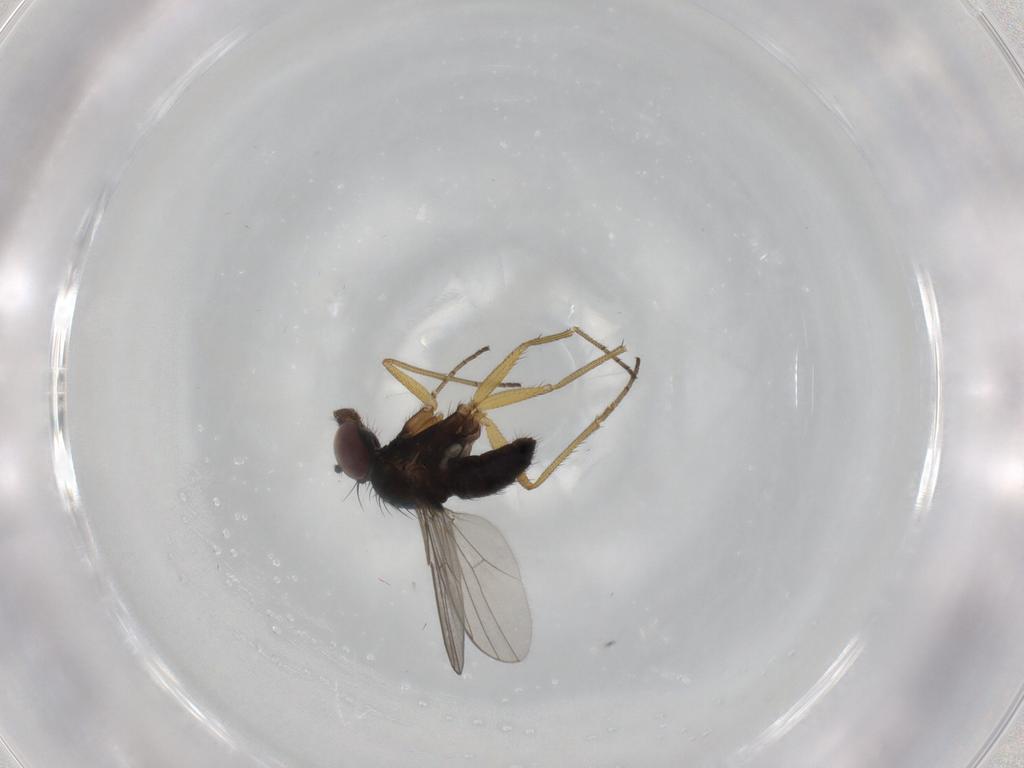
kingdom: Animalia
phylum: Arthropoda
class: Insecta
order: Diptera
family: Dolichopodidae
